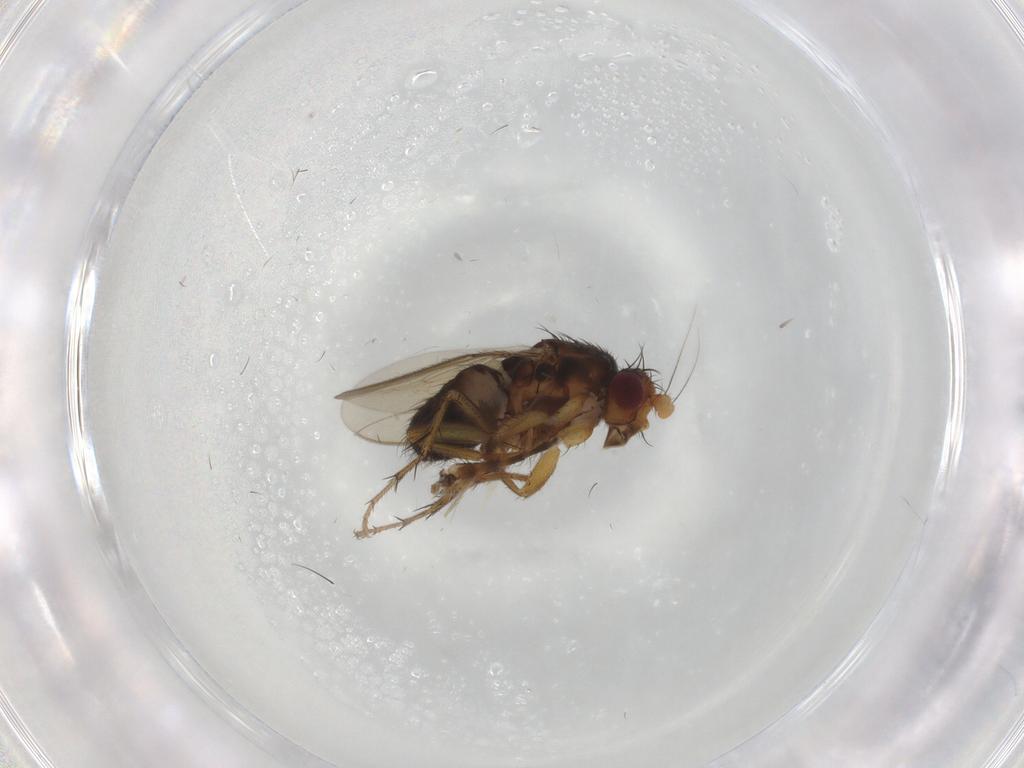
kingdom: Animalia
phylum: Arthropoda
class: Insecta
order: Diptera
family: Chironomidae
